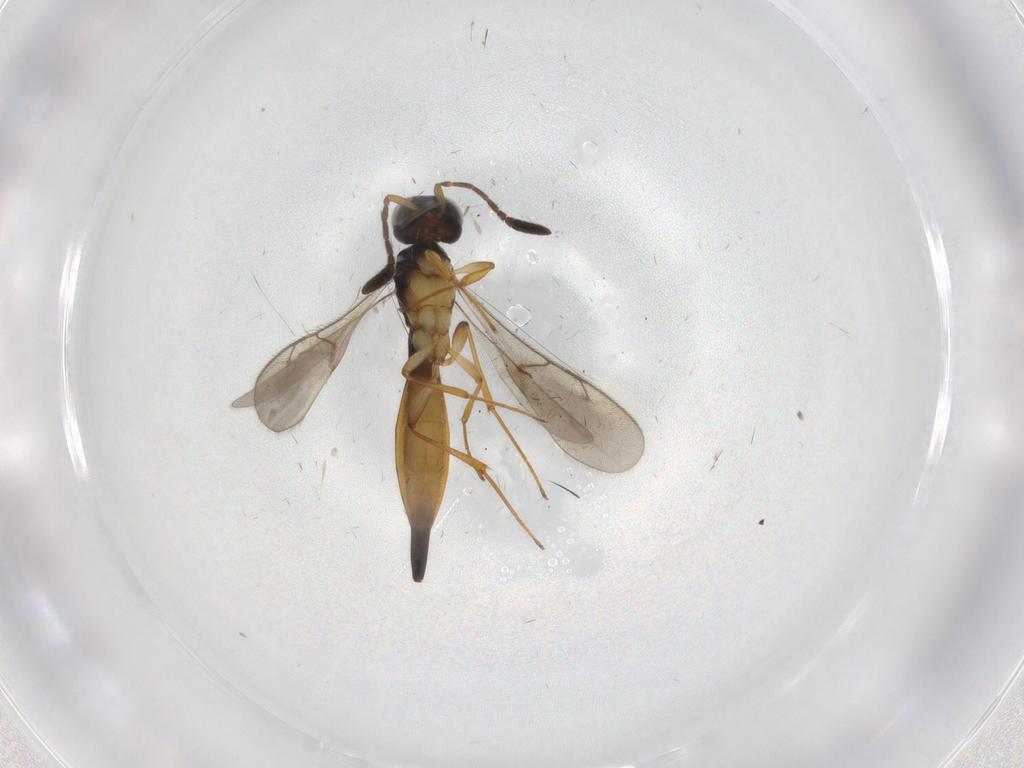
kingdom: Animalia
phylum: Arthropoda
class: Insecta
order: Hymenoptera
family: Scelionidae
